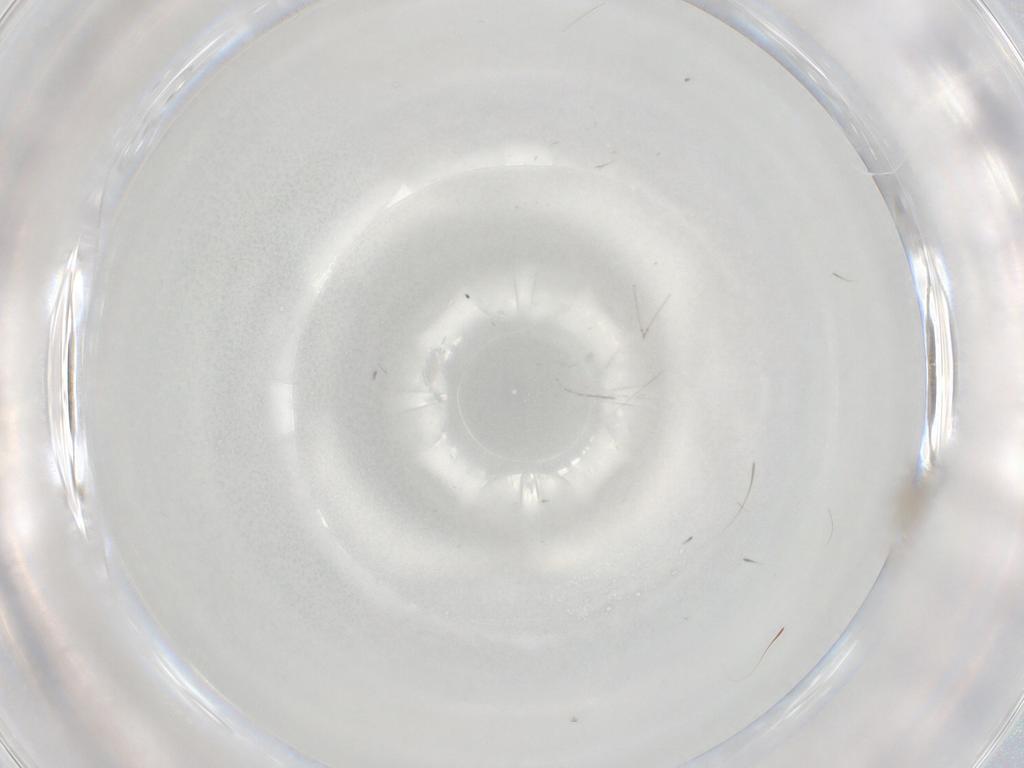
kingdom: Animalia
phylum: Arthropoda
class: Insecta
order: Diptera
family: Cecidomyiidae
